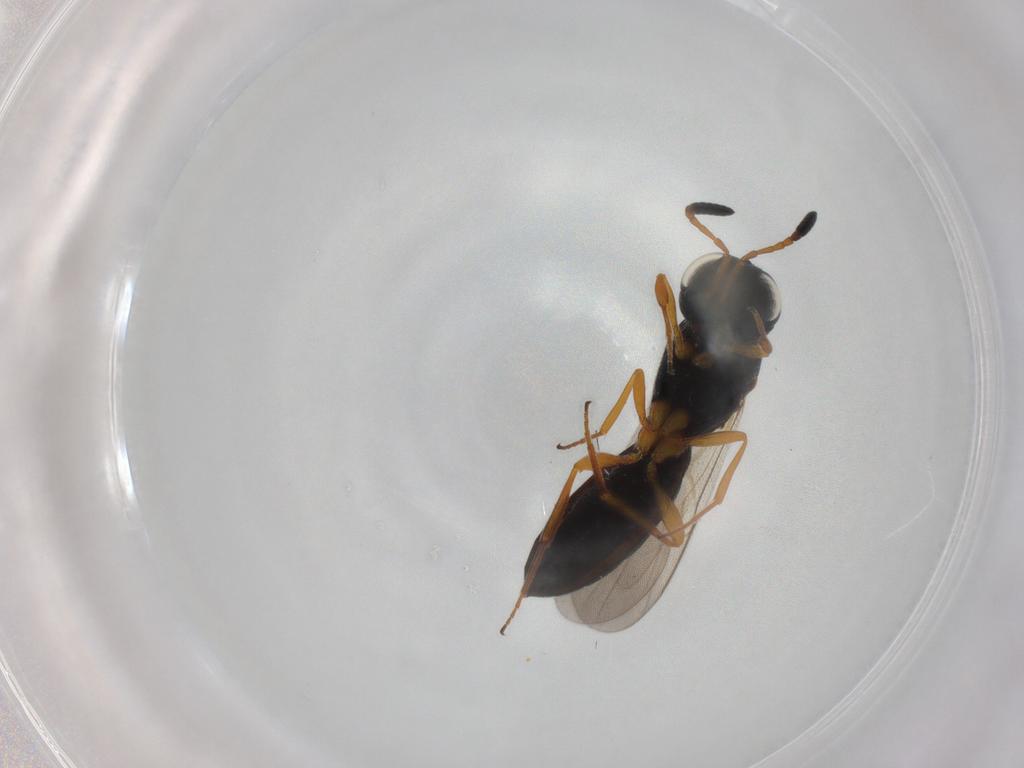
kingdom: Animalia
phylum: Arthropoda
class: Insecta
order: Hymenoptera
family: Scelionidae
